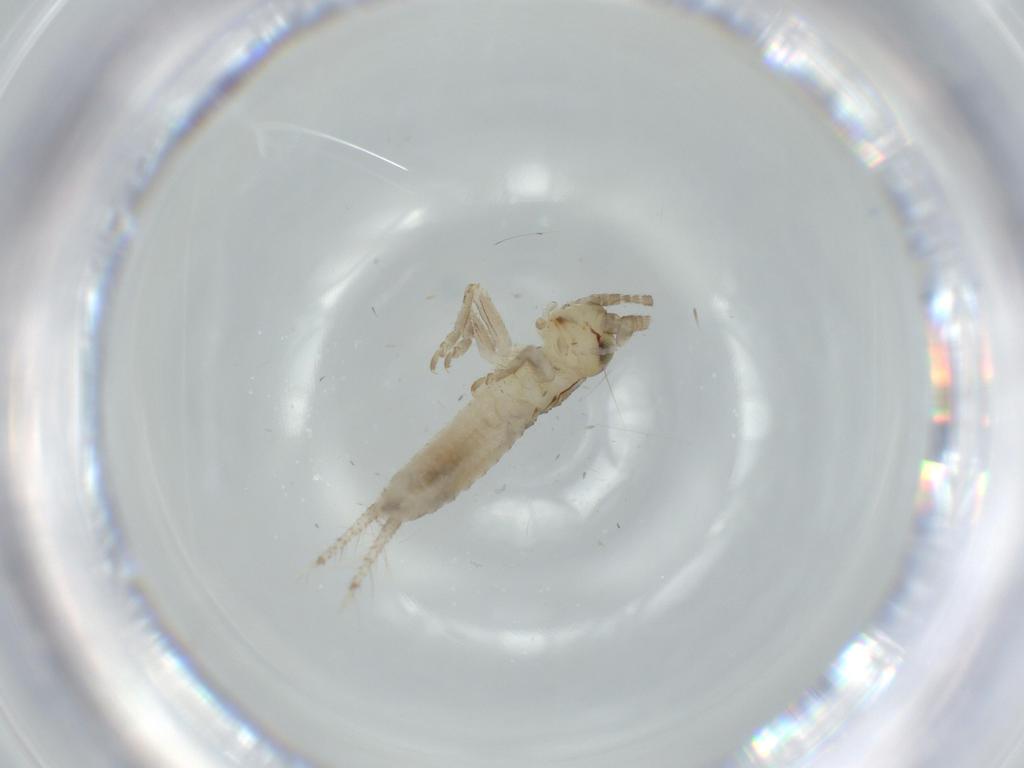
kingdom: Animalia
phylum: Arthropoda
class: Insecta
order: Orthoptera
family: Gryllidae
